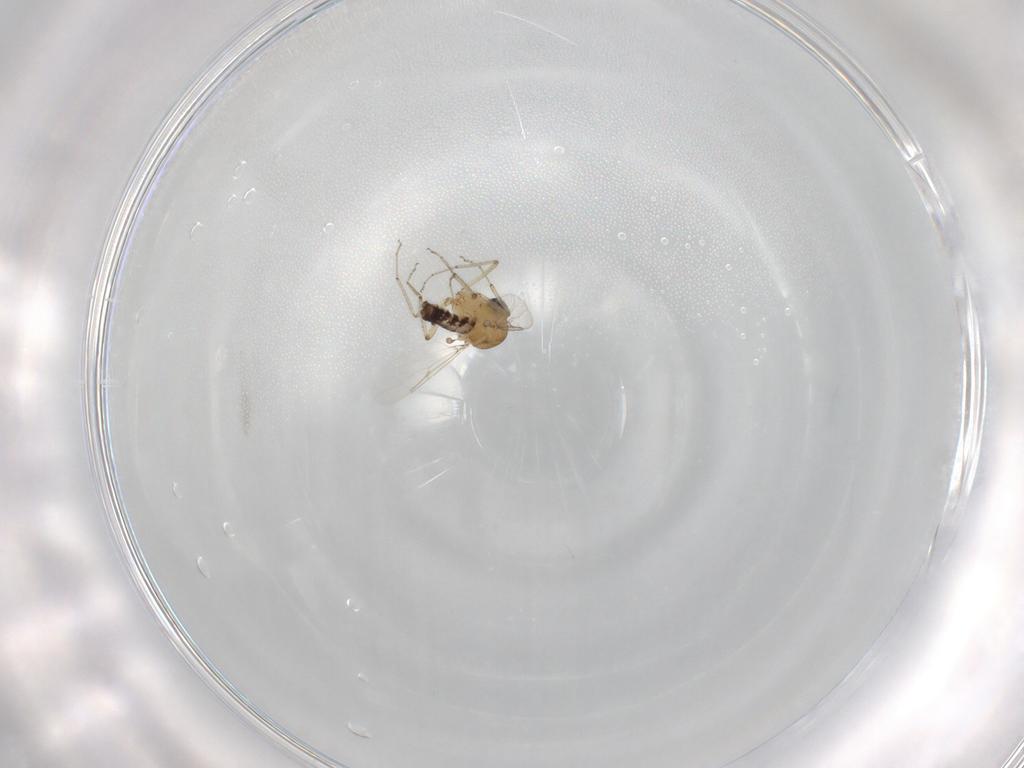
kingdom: Animalia
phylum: Arthropoda
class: Insecta
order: Diptera
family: Ceratopogonidae
